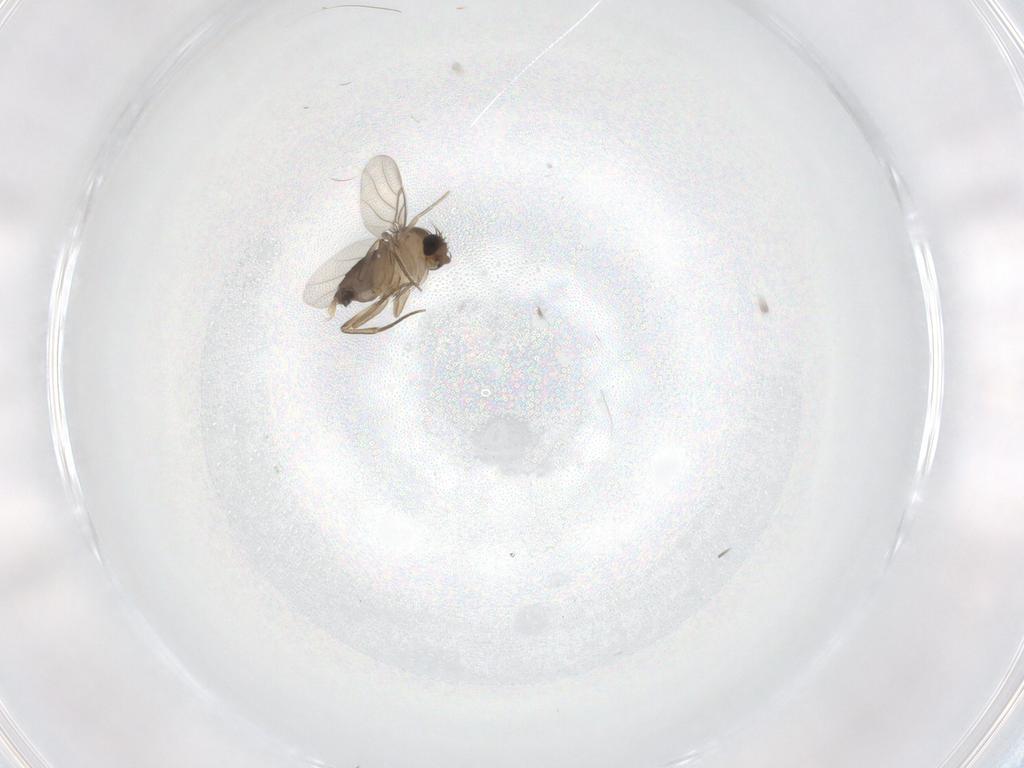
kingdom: Animalia
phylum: Arthropoda
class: Insecta
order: Diptera
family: Phoridae
